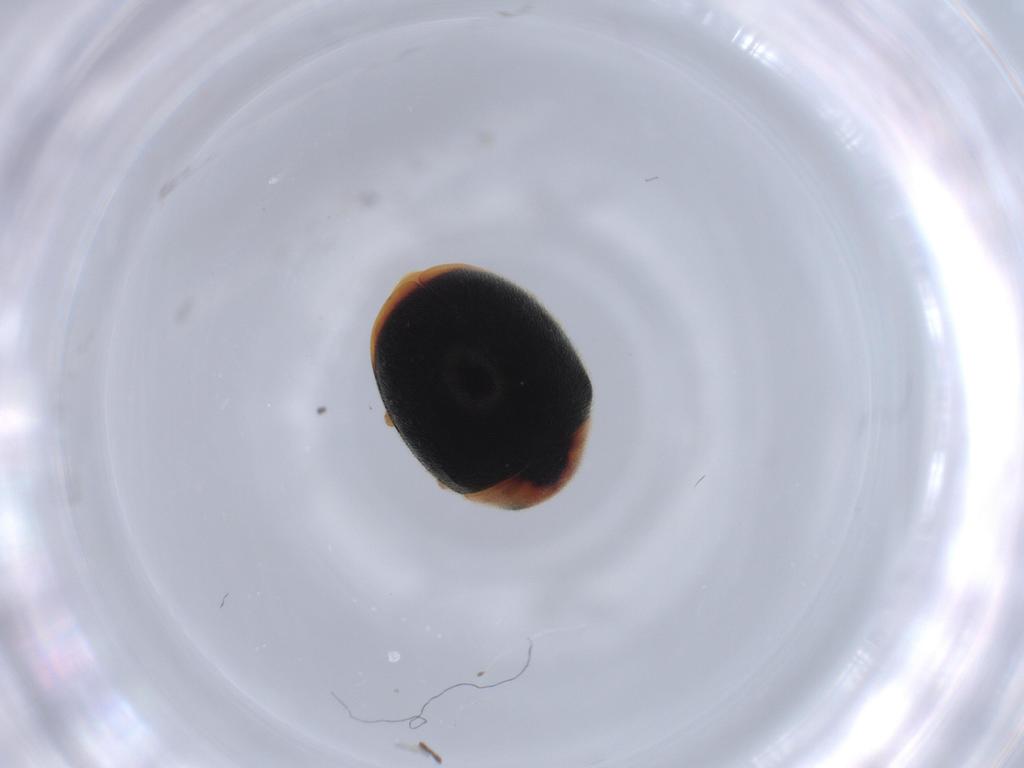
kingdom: Animalia
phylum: Arthropoda
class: Insecta
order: Coleoptera
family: Coccinellidae
